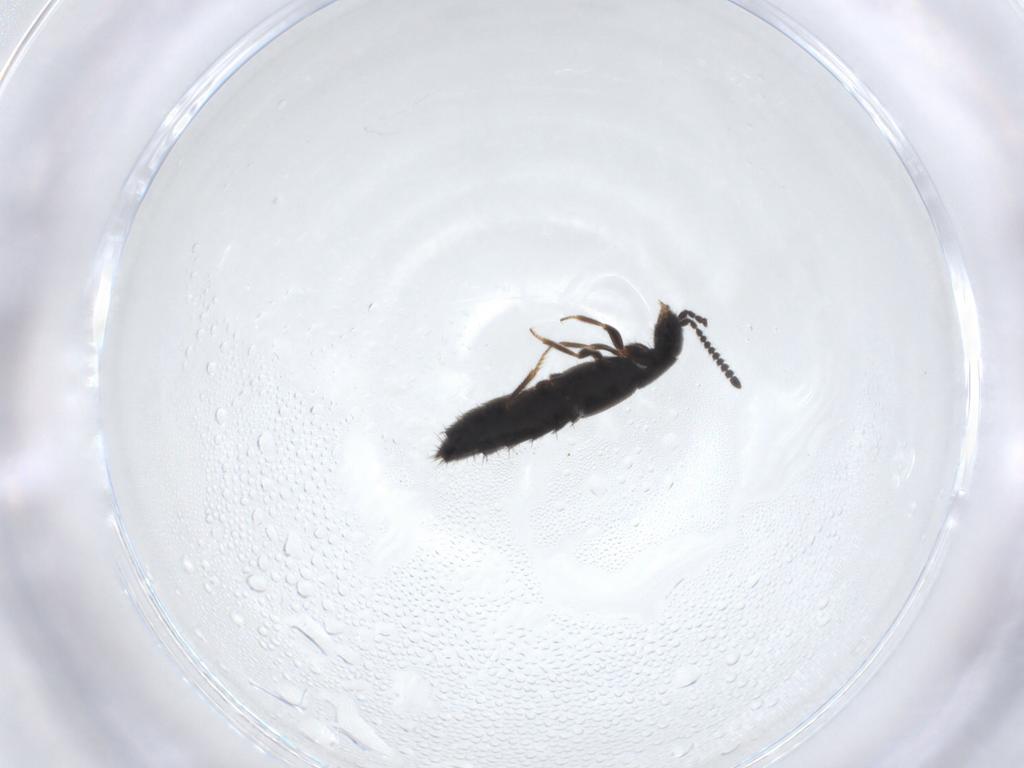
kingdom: Animalia
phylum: Arthropoda
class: Insecta
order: Coleoptera
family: Staphylinidae
